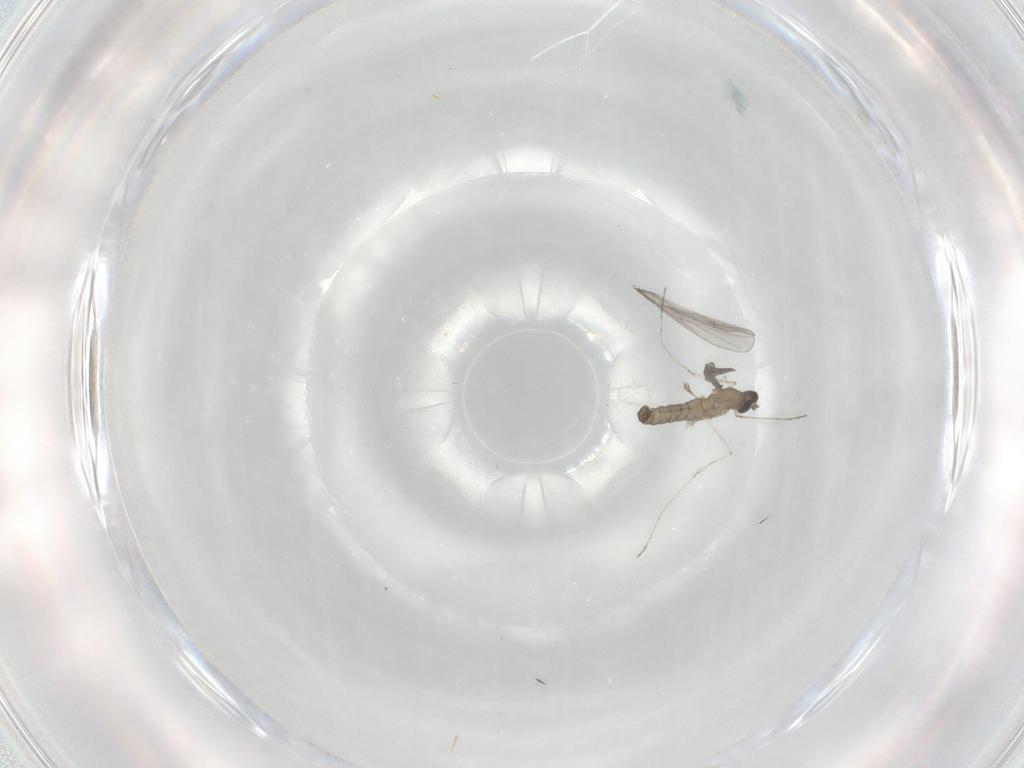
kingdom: Animalia
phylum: Arthropoda
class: Insecta
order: Diptera
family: Cecidomyiidae
